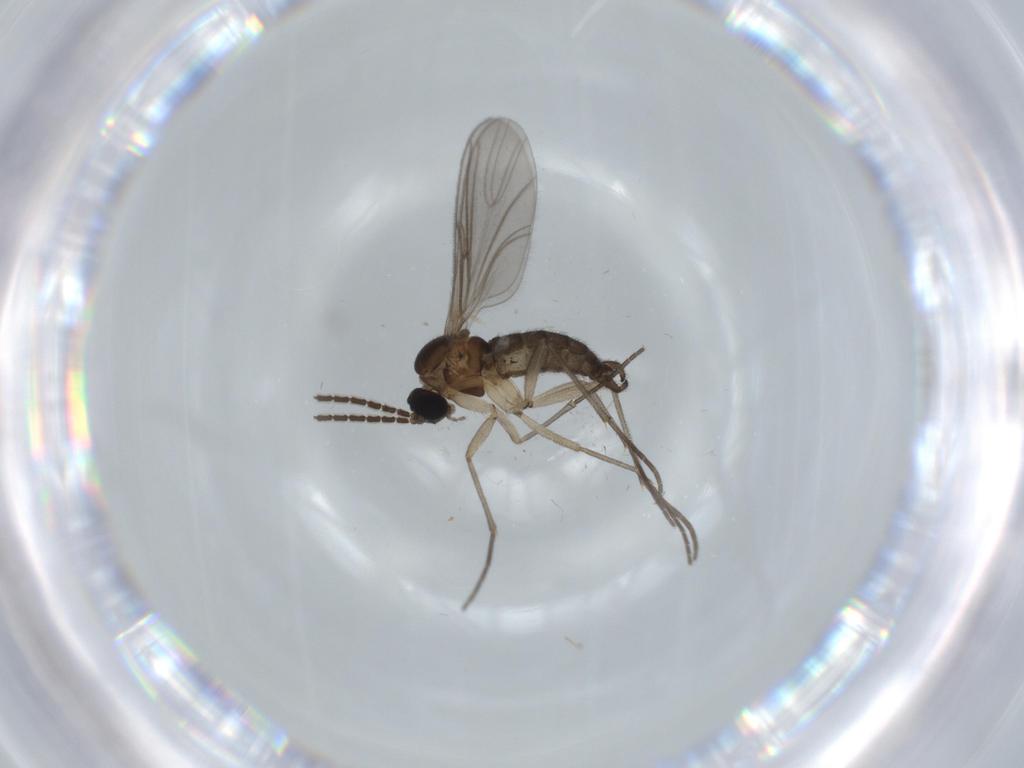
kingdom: Animalia
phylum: Arthropoda
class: Insecta
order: Diptera
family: Sciaridae
